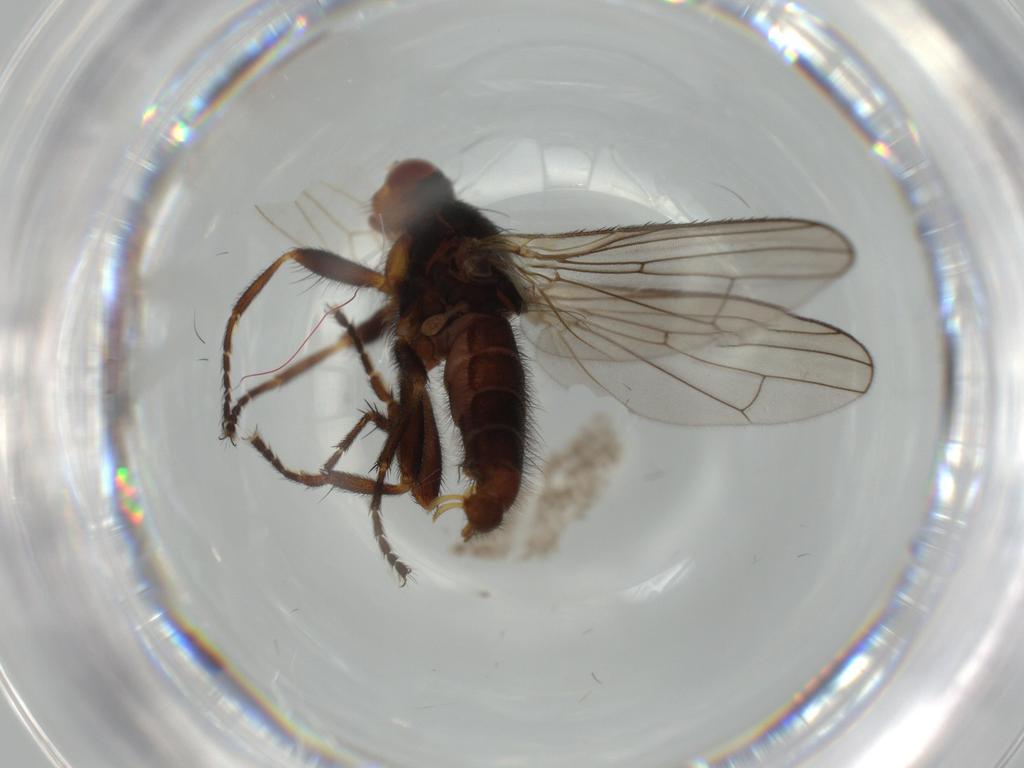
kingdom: Animalia
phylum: Arthropoda
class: Insecta
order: Diptera
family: Heleomyzidae
